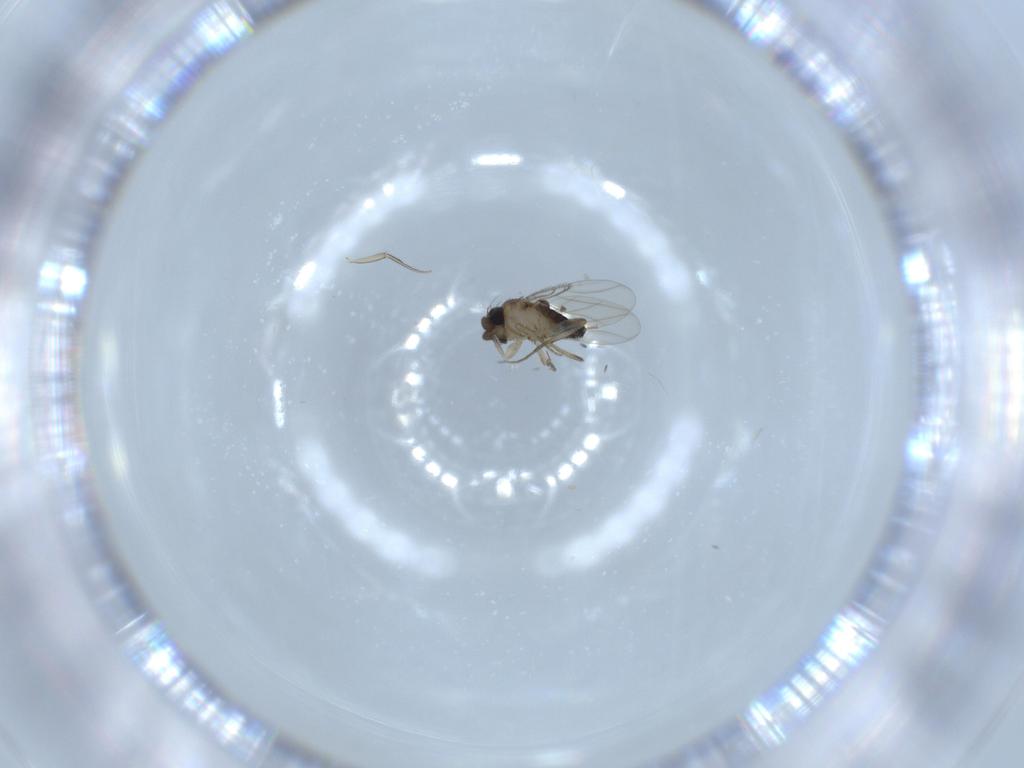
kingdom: Animalia
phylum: Arthropoda
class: Insecta
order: Diptera
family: Phoridae
